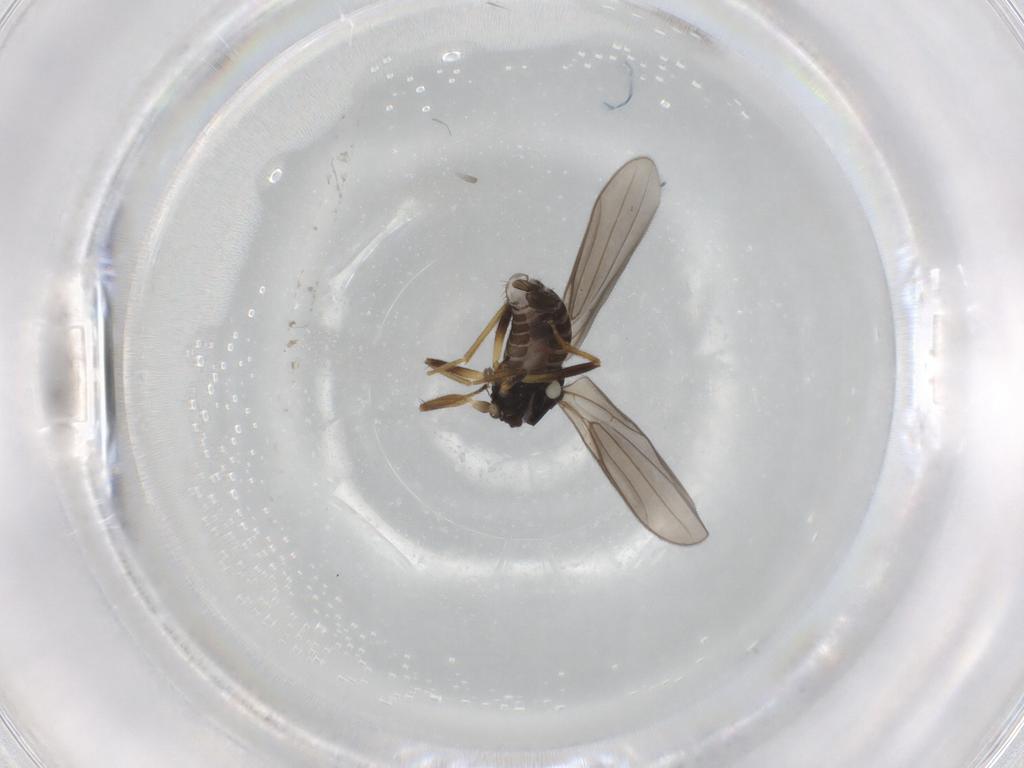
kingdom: Animalia
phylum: Arthropoda
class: Insecta
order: Diptera
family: Hybotidae
